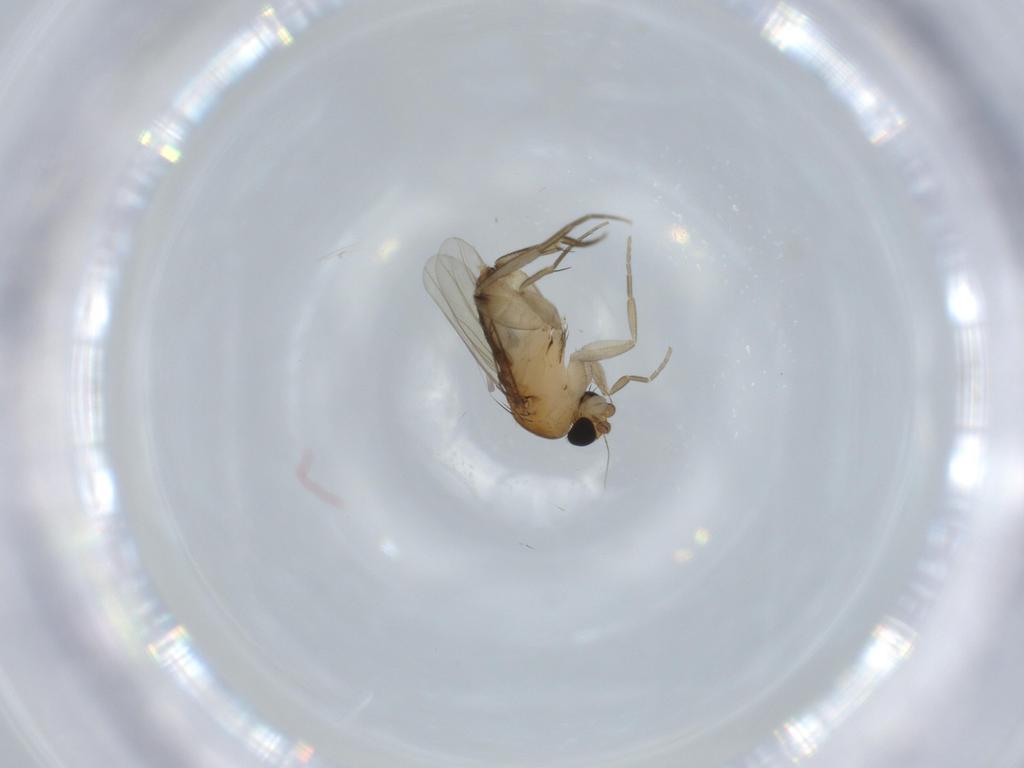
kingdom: Animalia
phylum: Arthropoda
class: Insecta
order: Diptera
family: Phoridae
